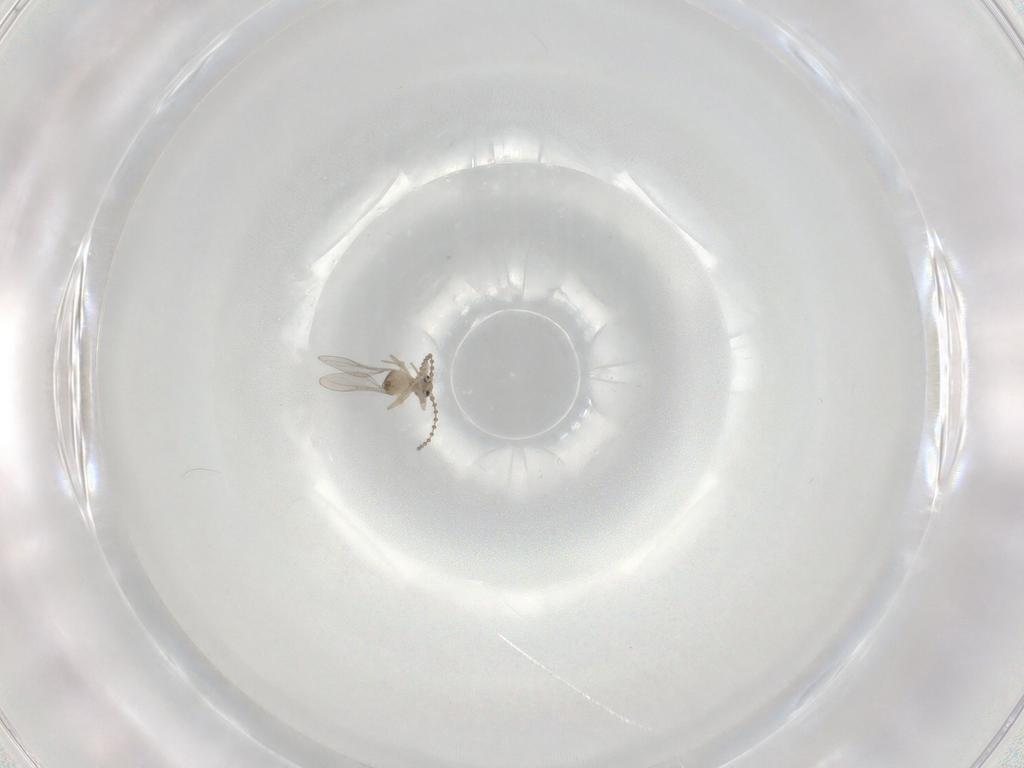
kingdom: Animalia
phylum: Arthropoda
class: Insecta
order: Diptera
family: Cecidomyiidae
